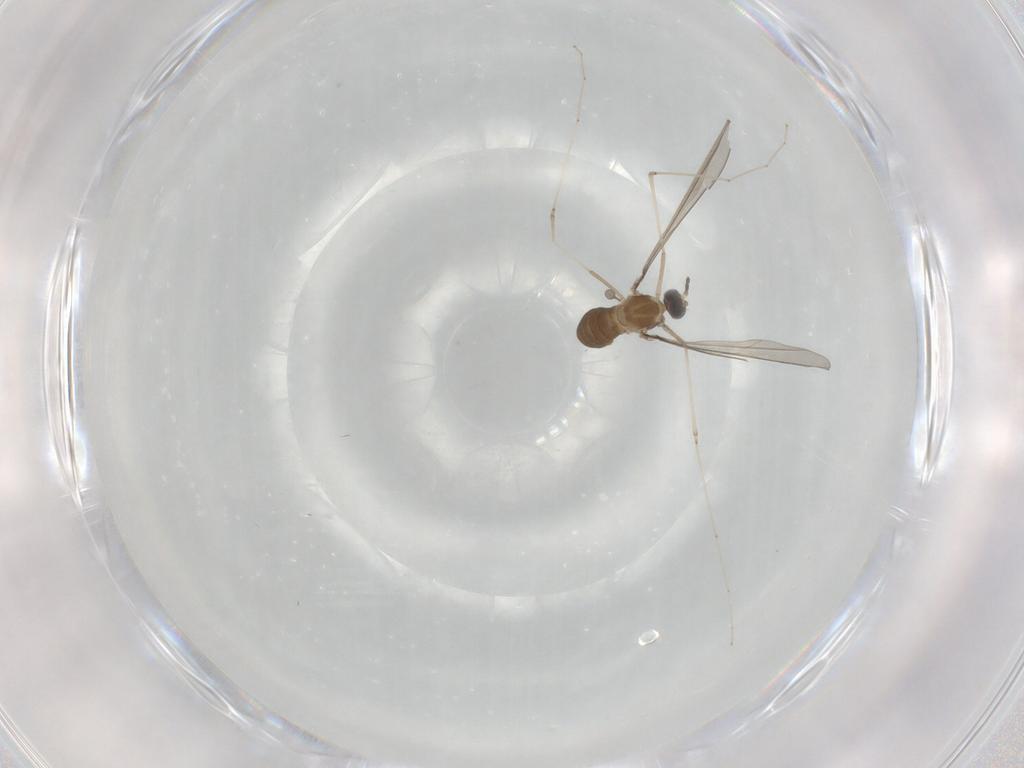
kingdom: Animalia
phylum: Arthropoda
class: Insecta
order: Diptera
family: Cecidomyiidae
